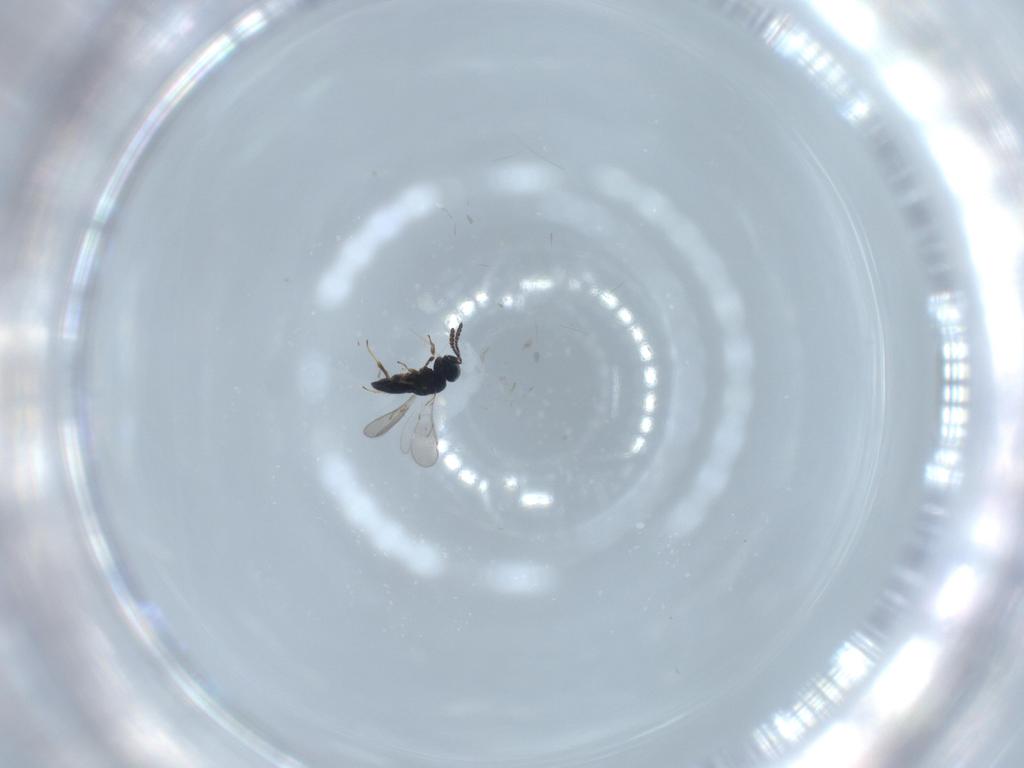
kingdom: Animalia
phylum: Arthropoda
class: Insecta
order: Hymenoptera
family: Scelionidae
